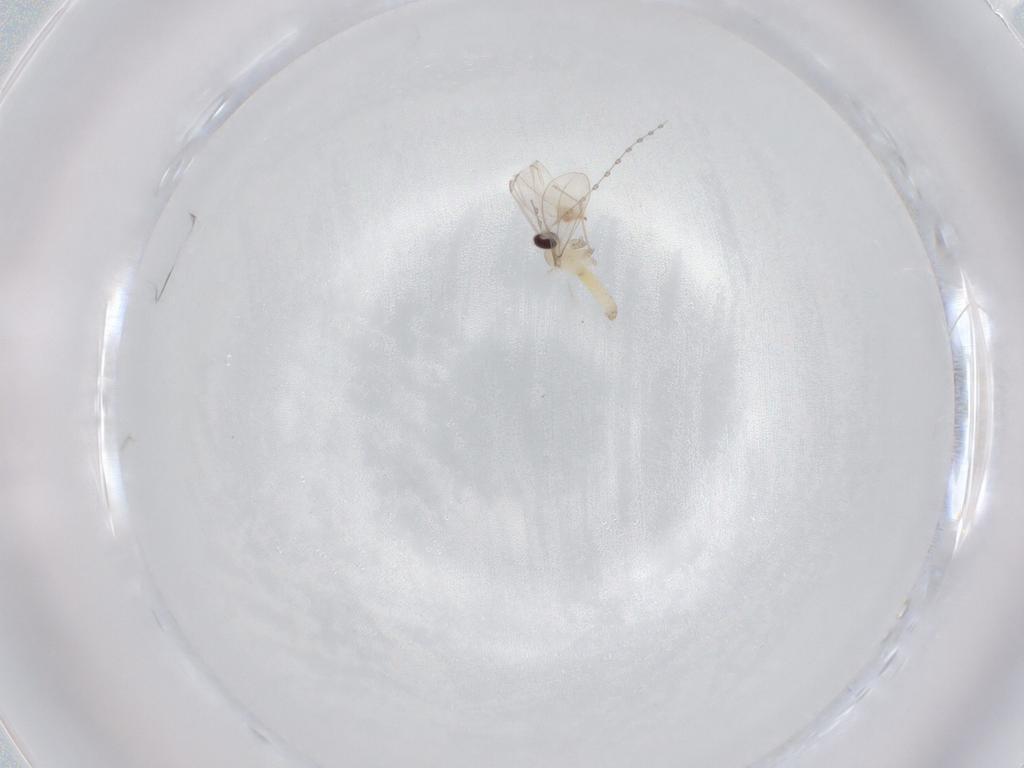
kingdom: Animalia
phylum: Arthropoda
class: Insecta
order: Diptera
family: Cecidomyiidae
